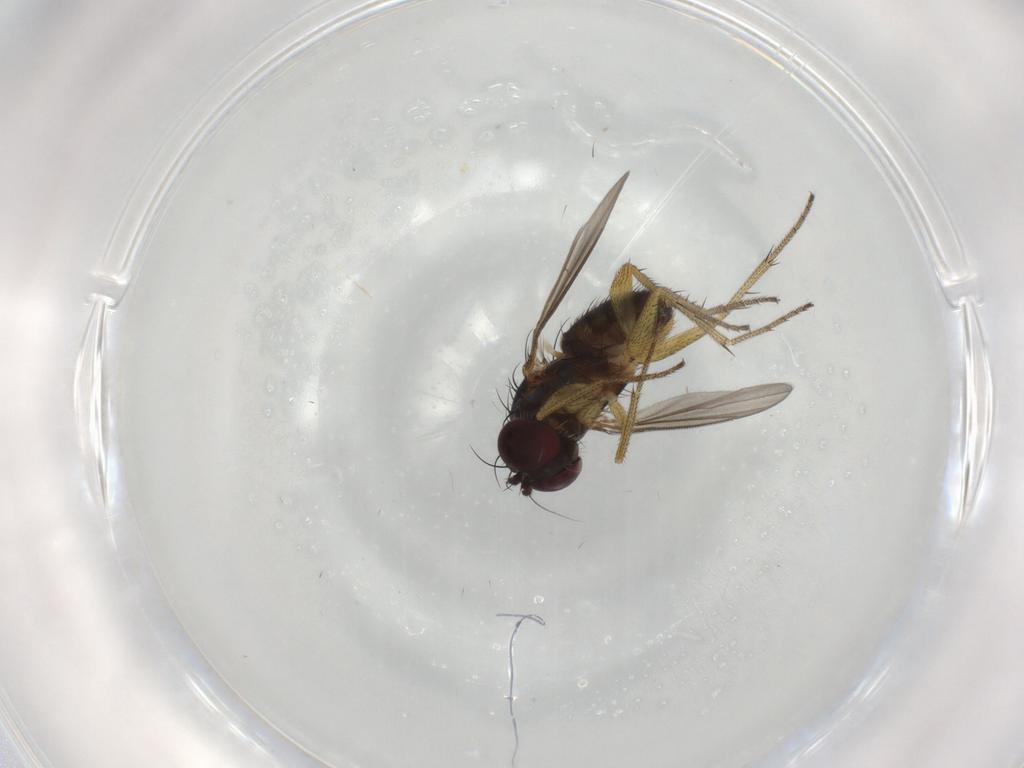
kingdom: Animalia
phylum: Arthropoda
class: Insecta
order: Diptera
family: Dolichopodidae
